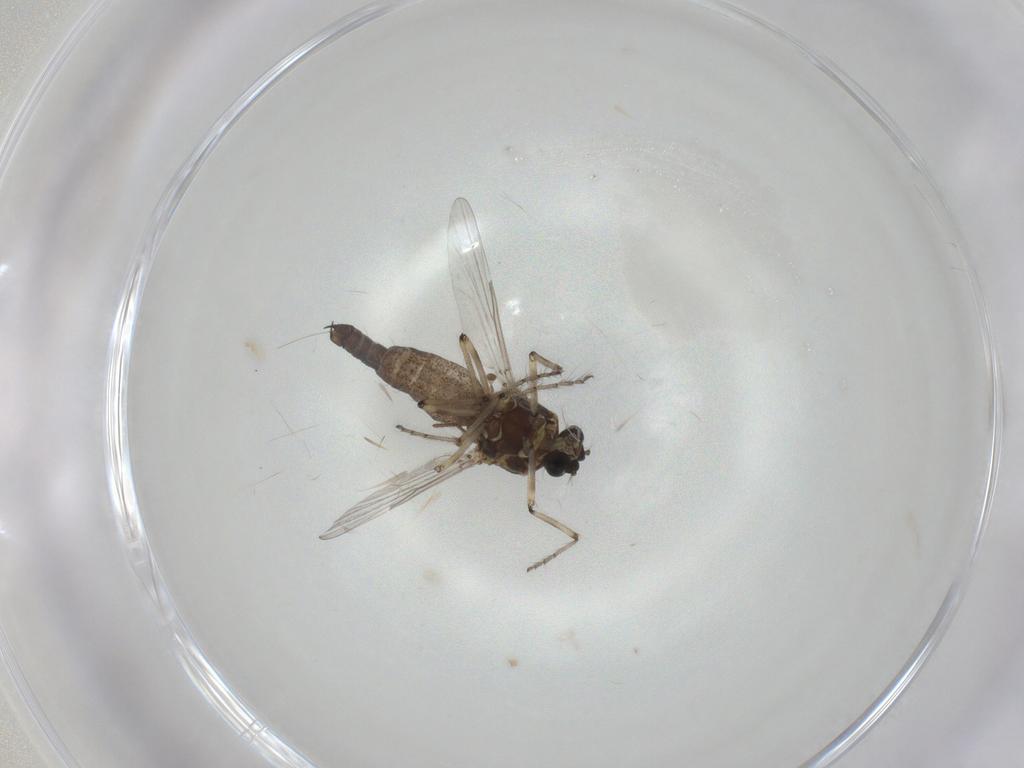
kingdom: Animalia
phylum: Arthropoda
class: Insecta
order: Diptera
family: Ceratopogonidae
